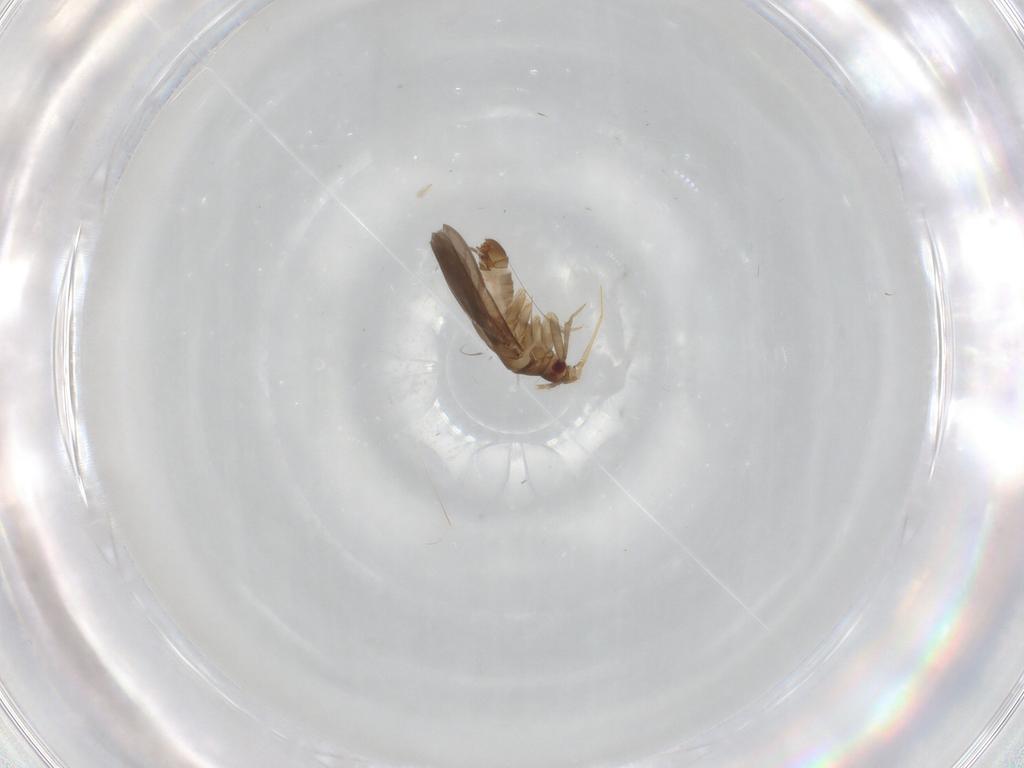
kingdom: Animalia
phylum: Arthropoda
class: Insecta
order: Hemiptera
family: Ceratocombidae
